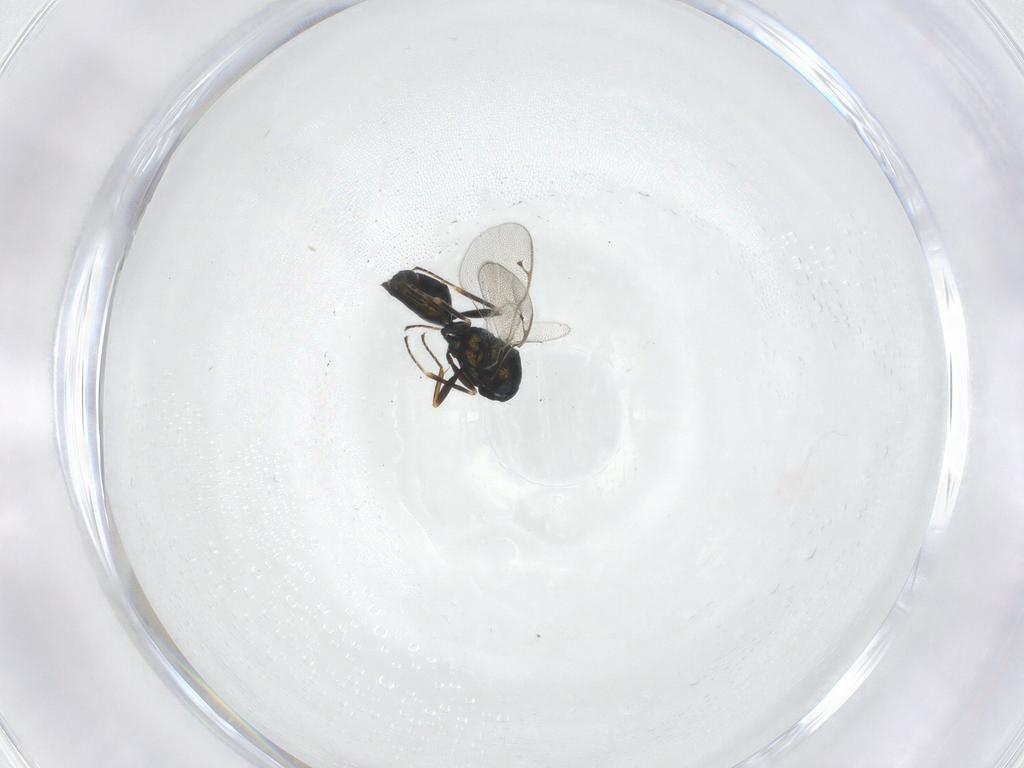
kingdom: Animalia
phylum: Arthropoda
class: Insecta
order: Hymenoptera
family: Pteromalidae
